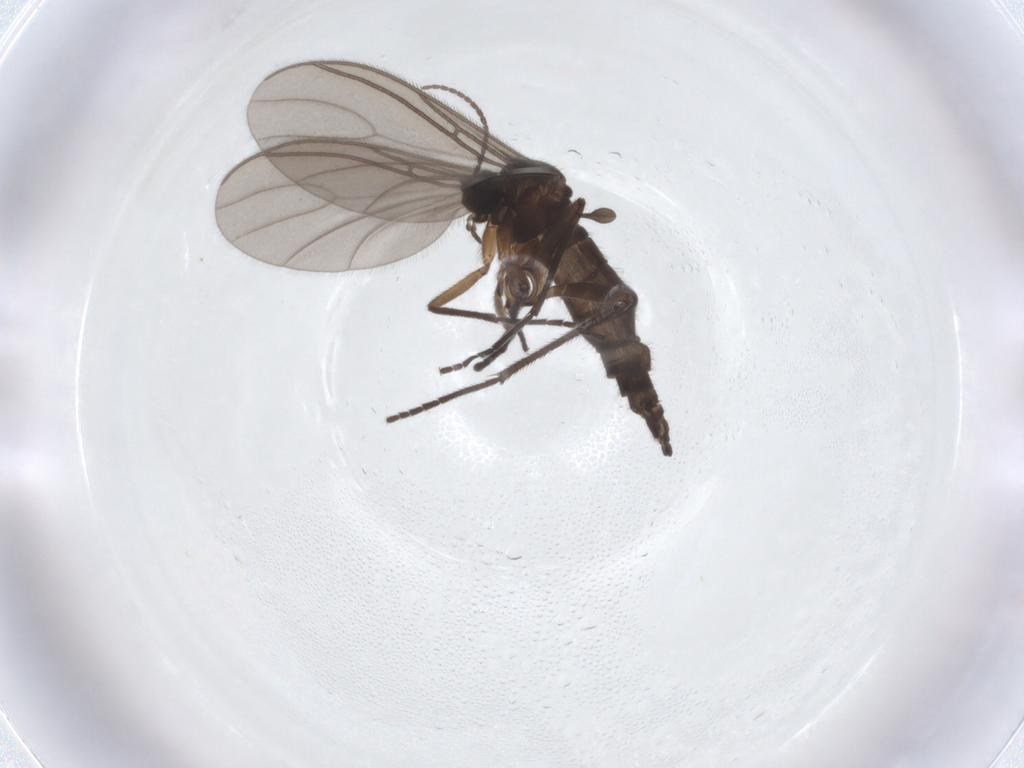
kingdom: Animalia
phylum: Arthropoda
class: Insecta
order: Diptera
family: Sciaridae
